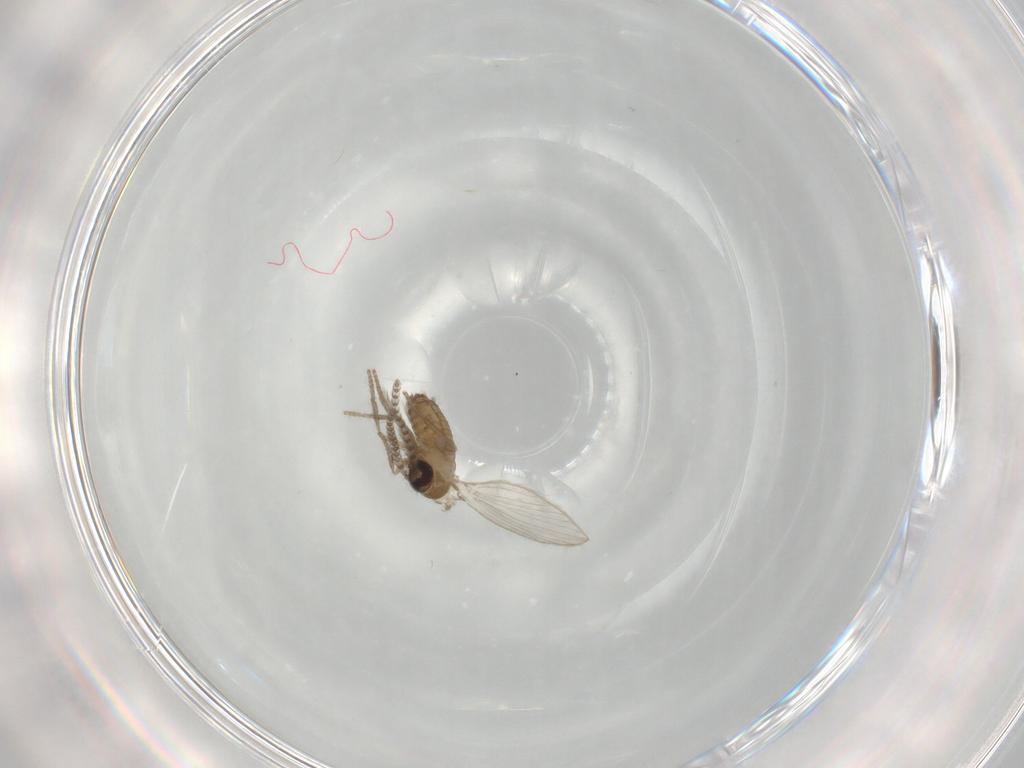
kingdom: Animalia
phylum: Arthropoda
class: Insecta
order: Diptera
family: Psychodidae
